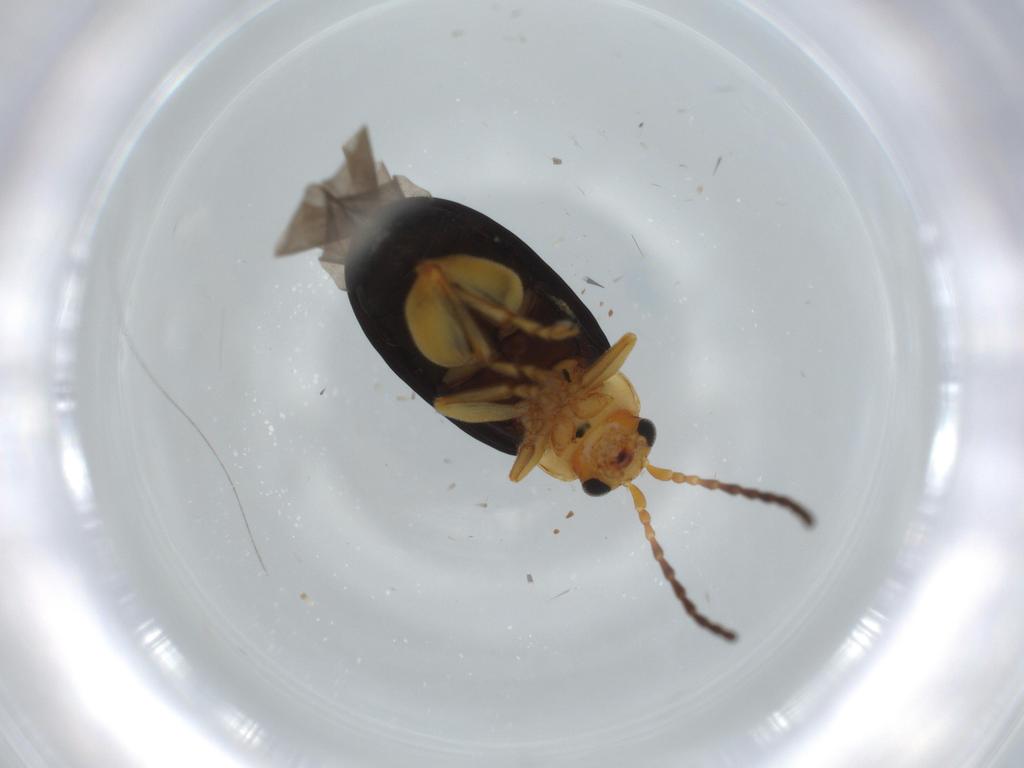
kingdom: Animalia
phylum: Arthropoda
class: Insecta
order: Coleoptera
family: Chrysomelidae
